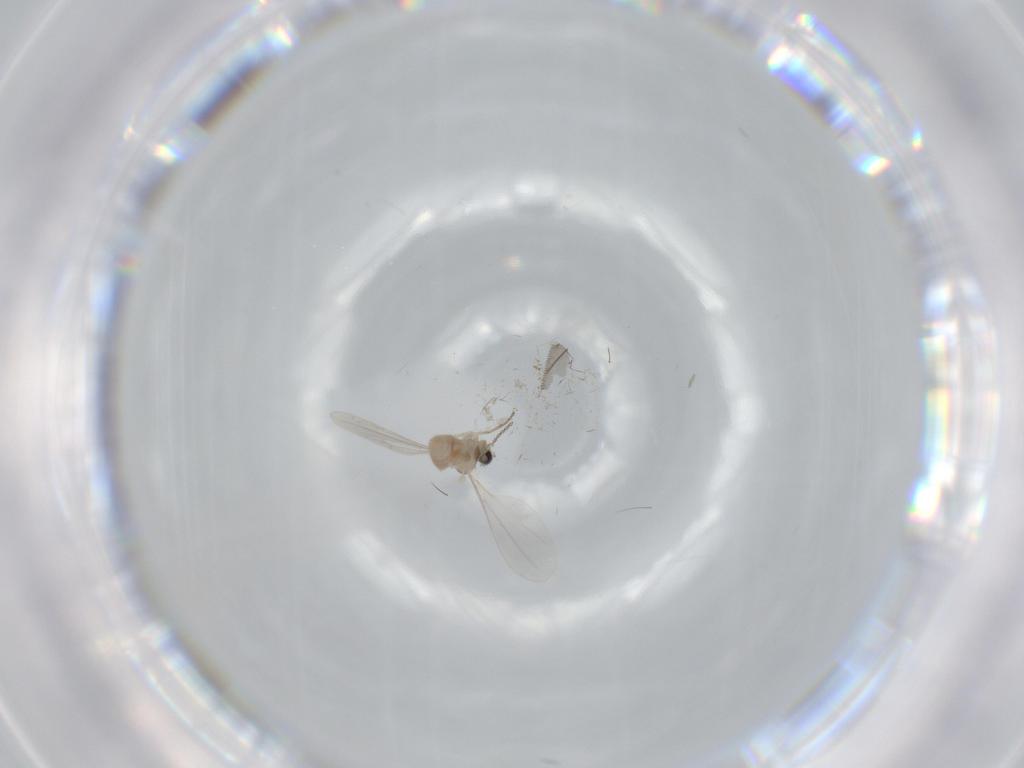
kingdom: Animalia
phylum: Arthropoda
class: Insecta
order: Diptera
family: Chironomidae
